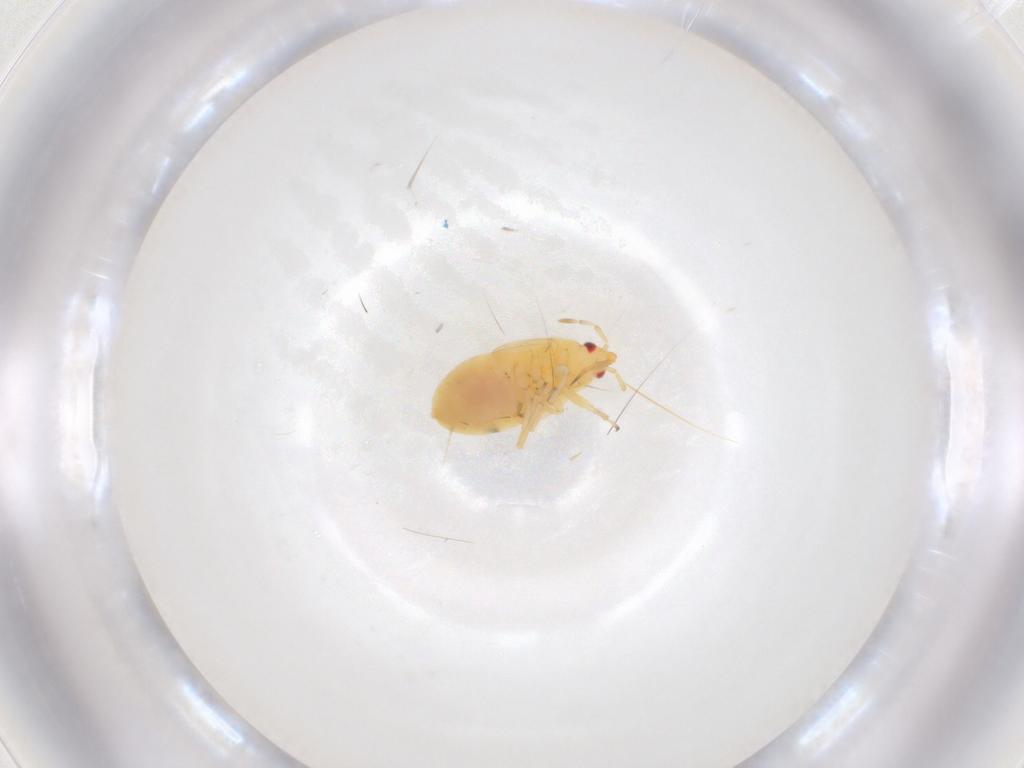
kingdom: Animalia
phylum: Arthropoda
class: Insecta
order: Hemiptera
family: Anthocoridae
